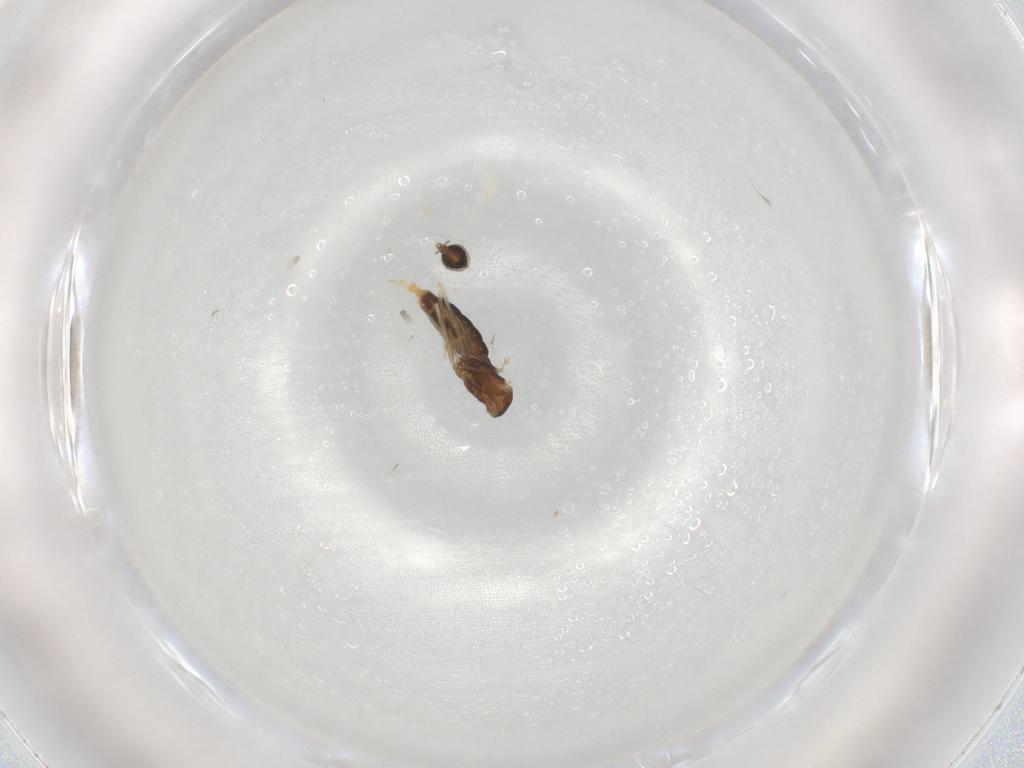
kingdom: Animalia
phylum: Arthropoda
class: Insecta
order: Diptera
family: Cecidomyiidae
